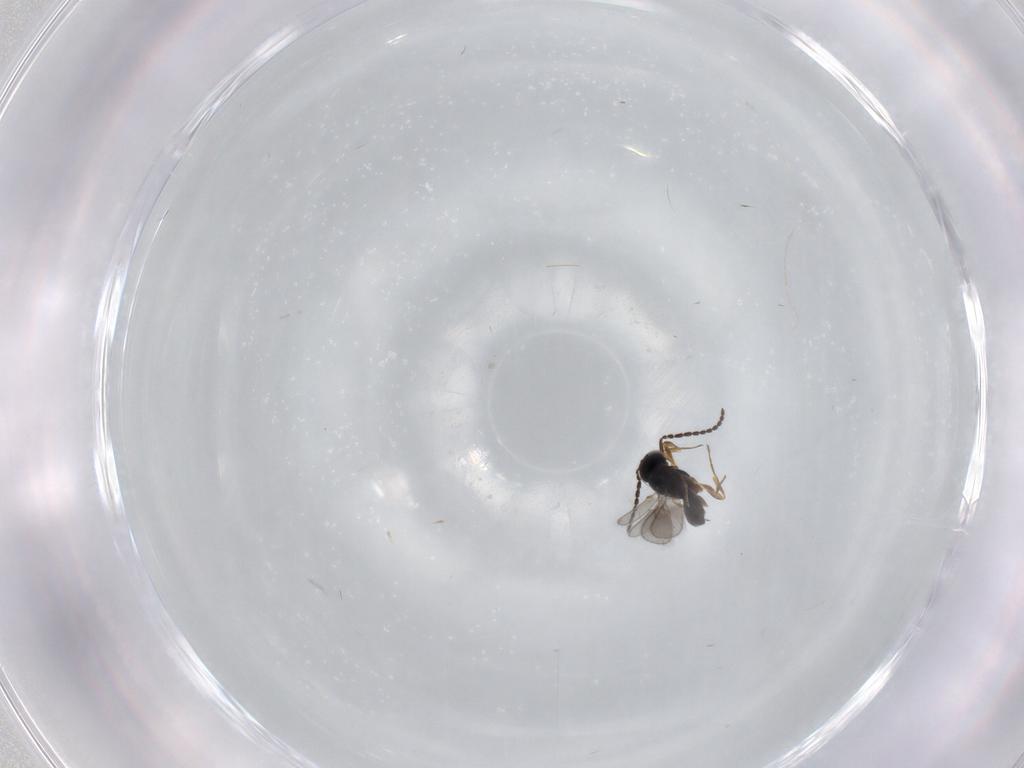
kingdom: Animalia
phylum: Arthropoda
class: Insecta
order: Hymenoptera
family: Scelionidae
